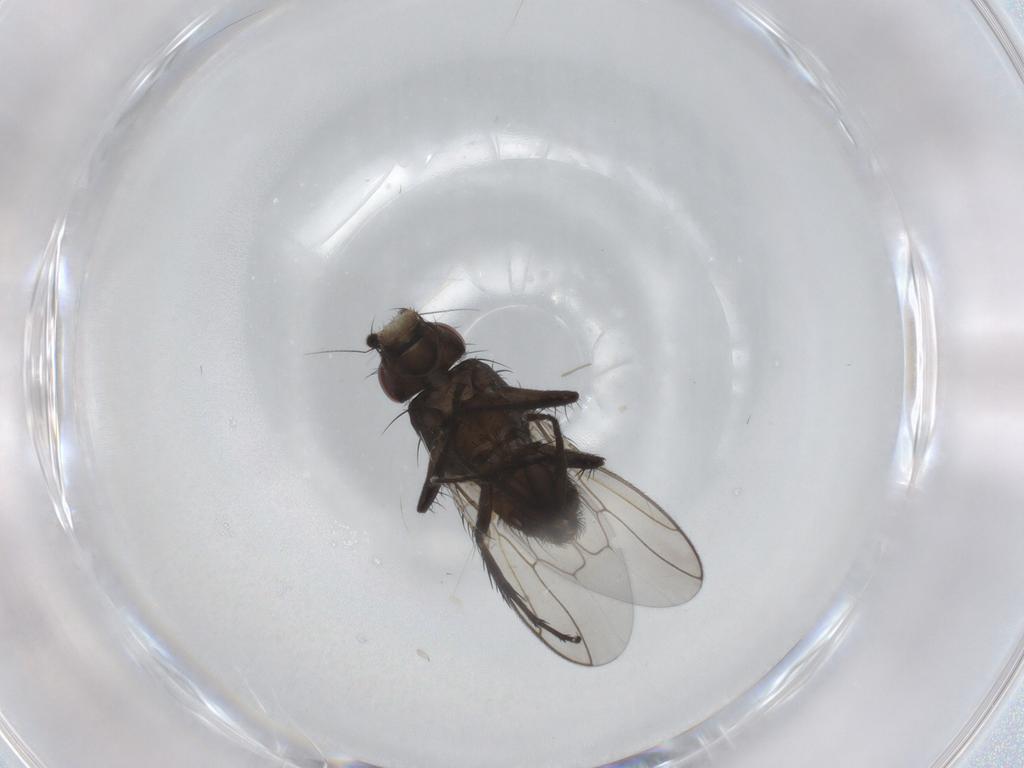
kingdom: Animalia
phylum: Arthropoda
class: Insecta
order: Diptera
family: Sphaeroceridae
